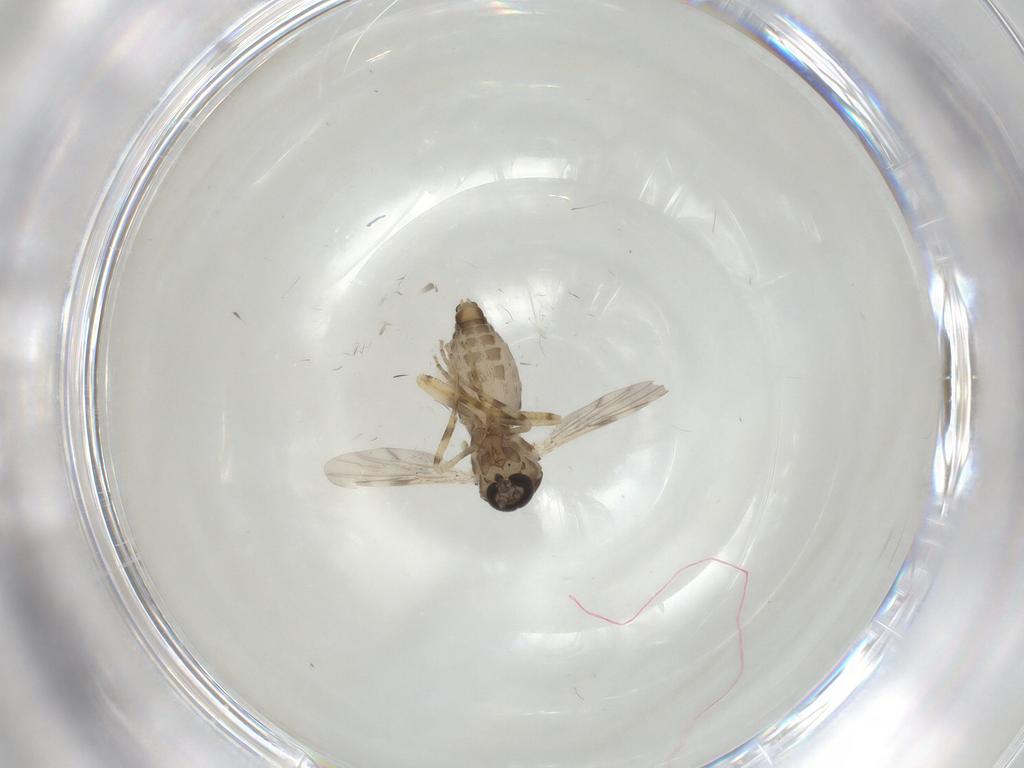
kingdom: Animalia
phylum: Arthropoda
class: Insecta
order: Diptera
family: Ceratopogonidae
